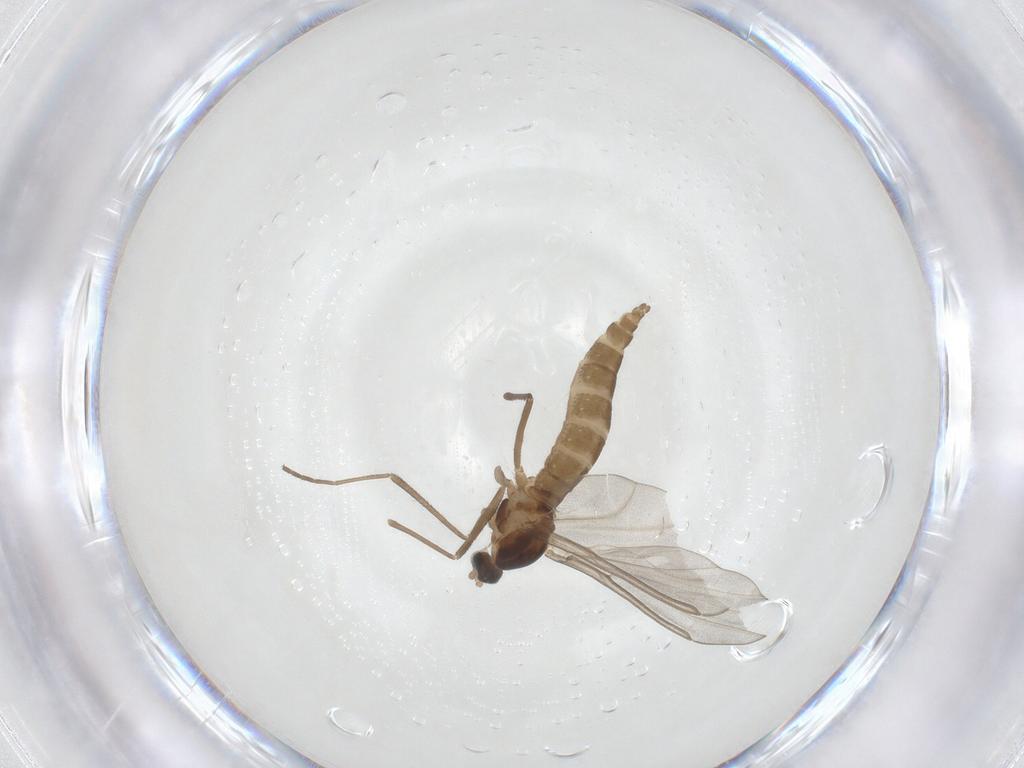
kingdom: Animalia
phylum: Arthropoda
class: Insecta
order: Diptera
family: Cecidomyiidae
